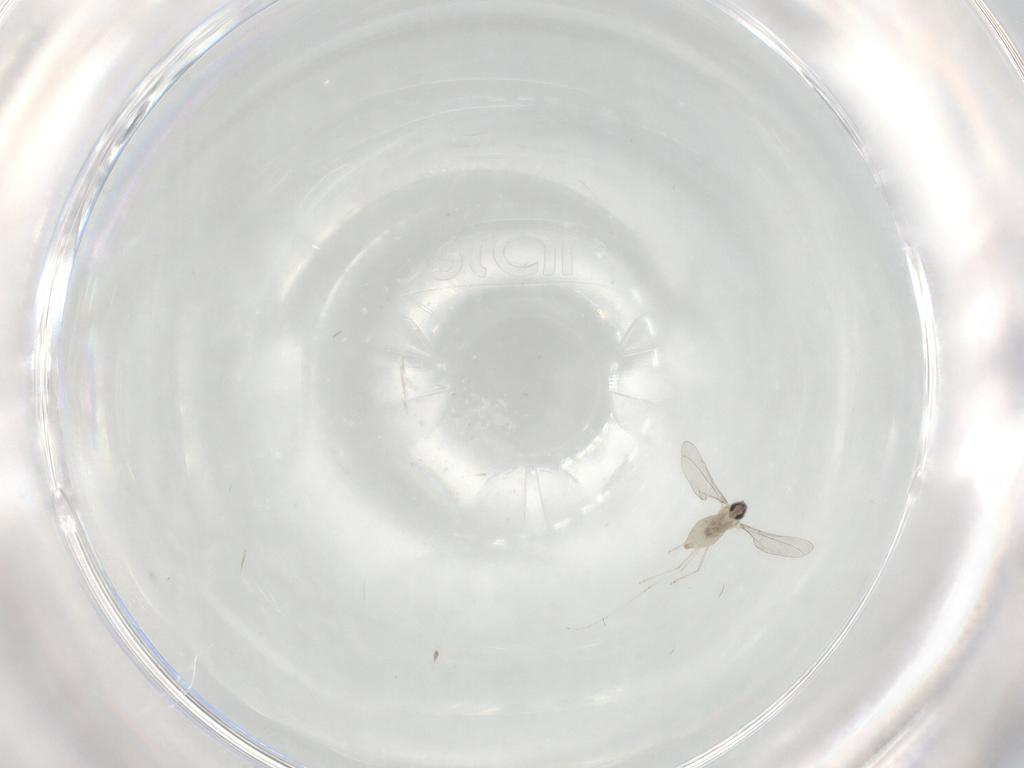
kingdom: Animalia
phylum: Arthropoda
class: Insecta
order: Diptera
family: Cecidomyiidae
